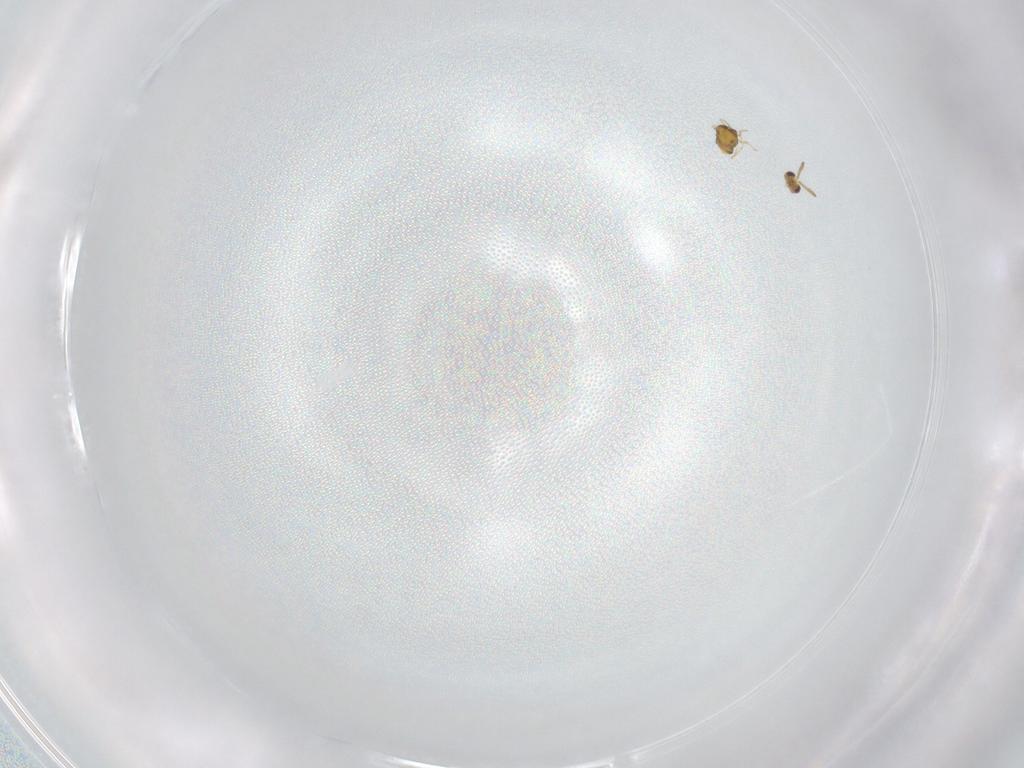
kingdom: Animalia
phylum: Arthropoda
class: Insecta
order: Hymenoptera
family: Aphelinidae
